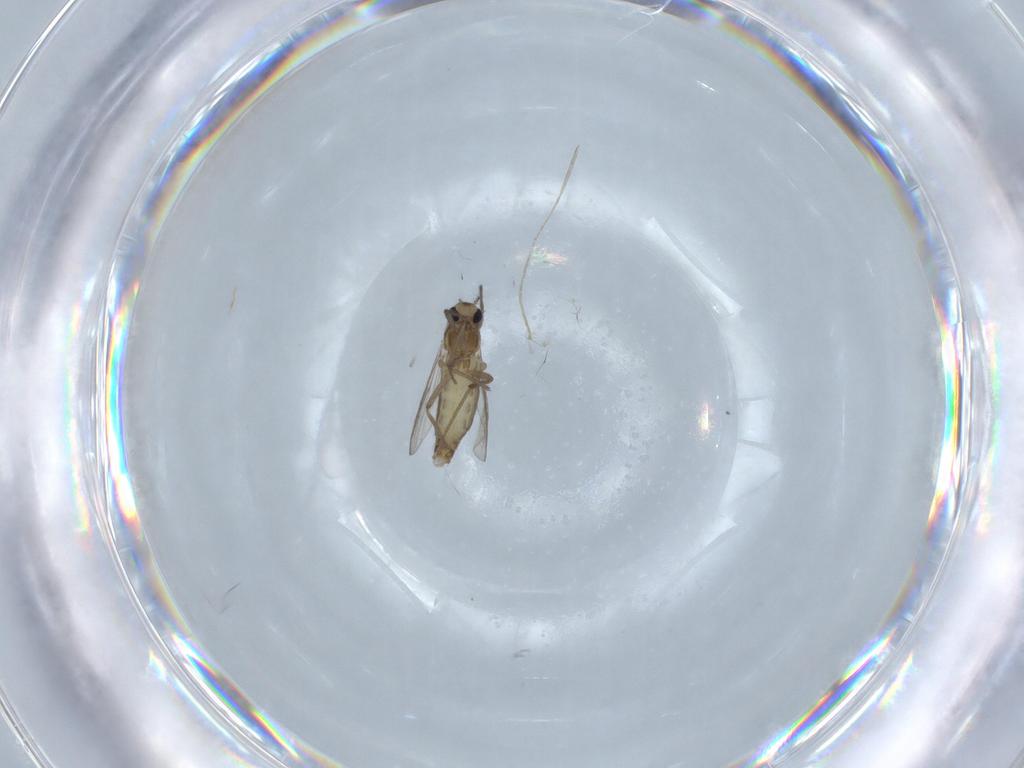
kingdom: Animalia
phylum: Arthropoda
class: Insecta
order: Diptera
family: Chironomidae
